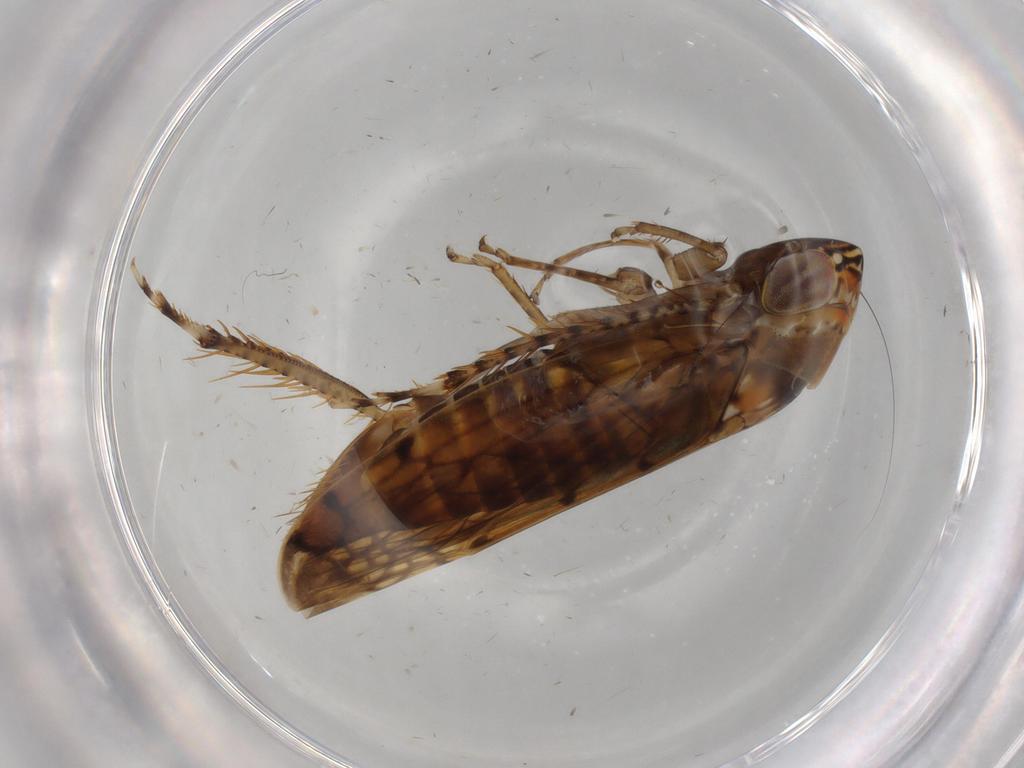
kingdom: Animalia
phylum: Arthropoda
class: Insecta
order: Hemiptera
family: Cicadellidae
